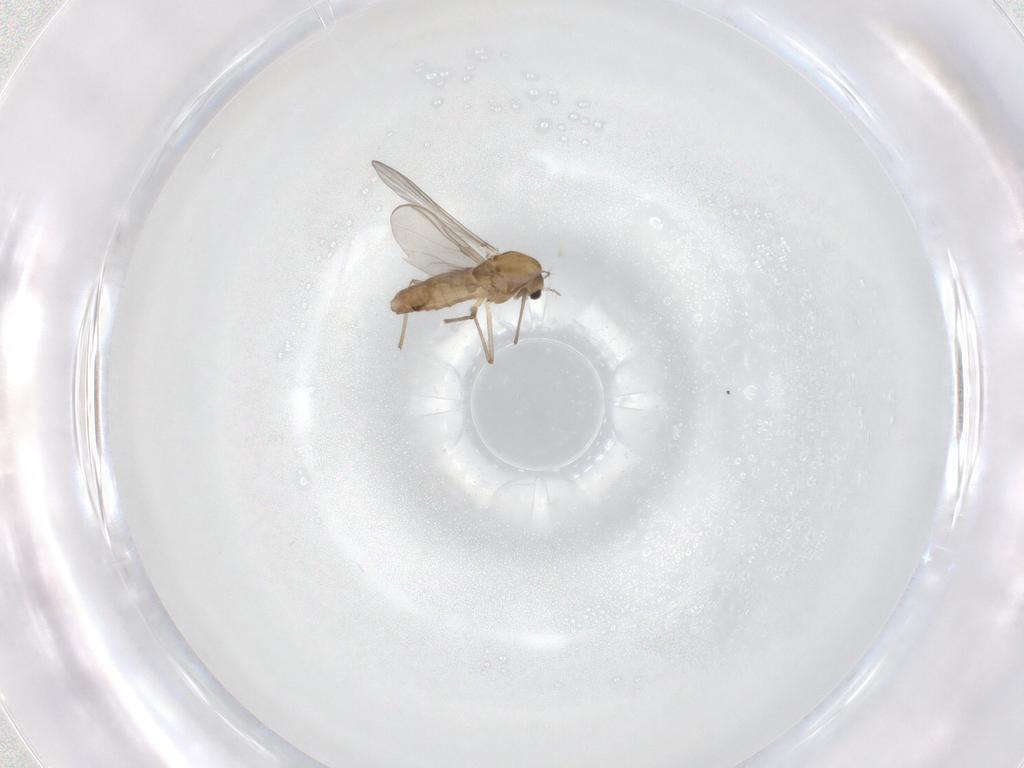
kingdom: Animalia
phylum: Arthropoda
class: Insecta
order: Diptera
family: Chironomidae
